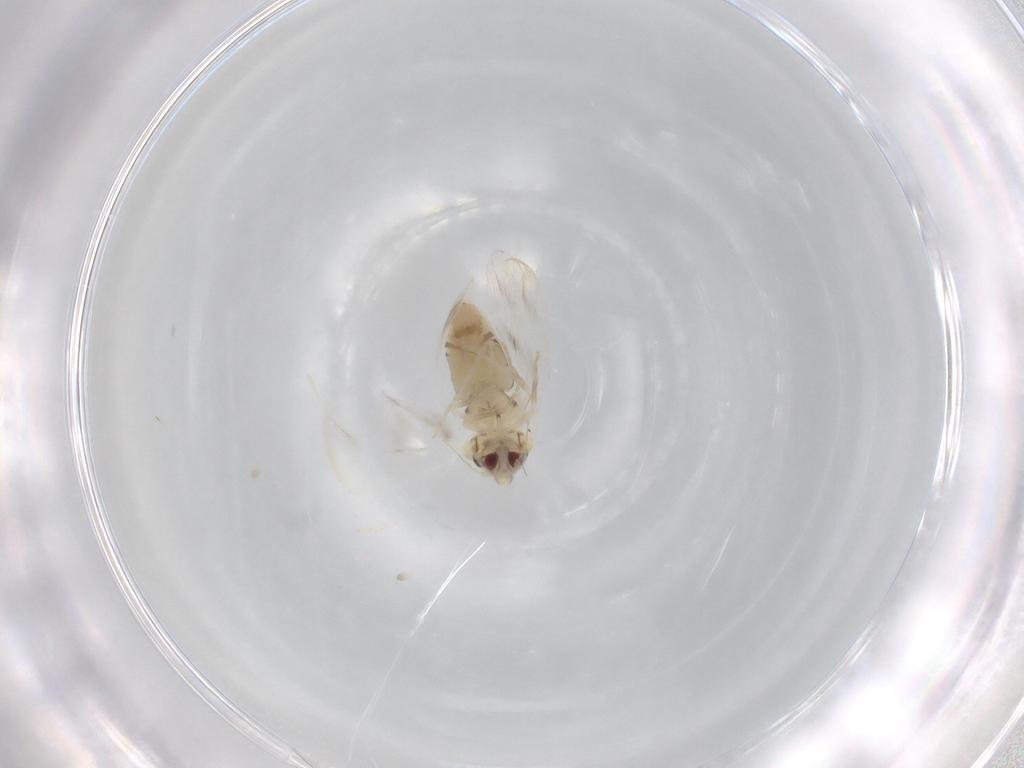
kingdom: Animalia
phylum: Arthropoda
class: Insecta
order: Hemiptera
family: Aleyrodidae
